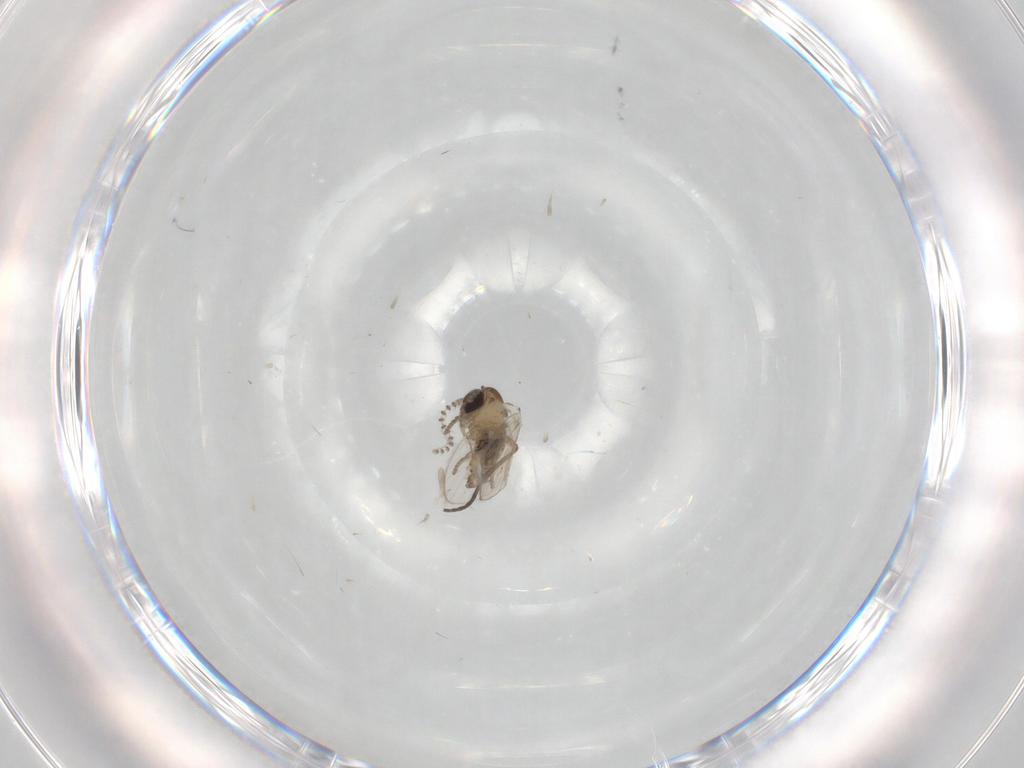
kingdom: Animalia
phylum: Arthropoda
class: Insecta
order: Diptera
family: Psychodidae
